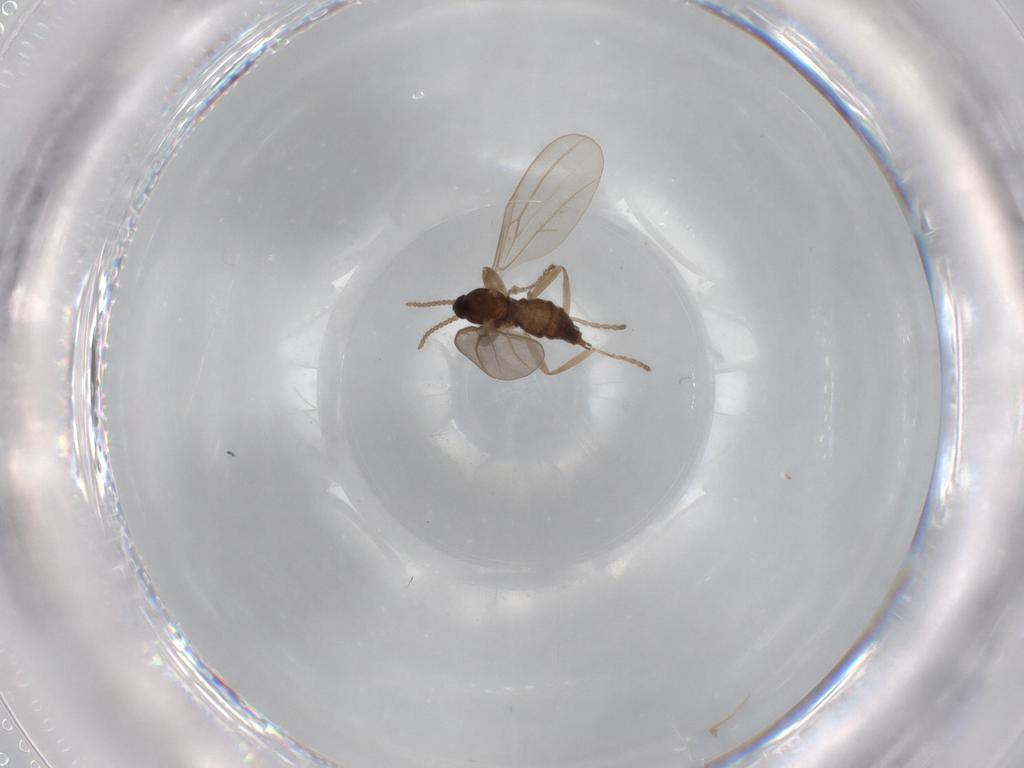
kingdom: Animalia
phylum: Arthropoda
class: Insecta
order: Diptera
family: Cecidomyiidae
